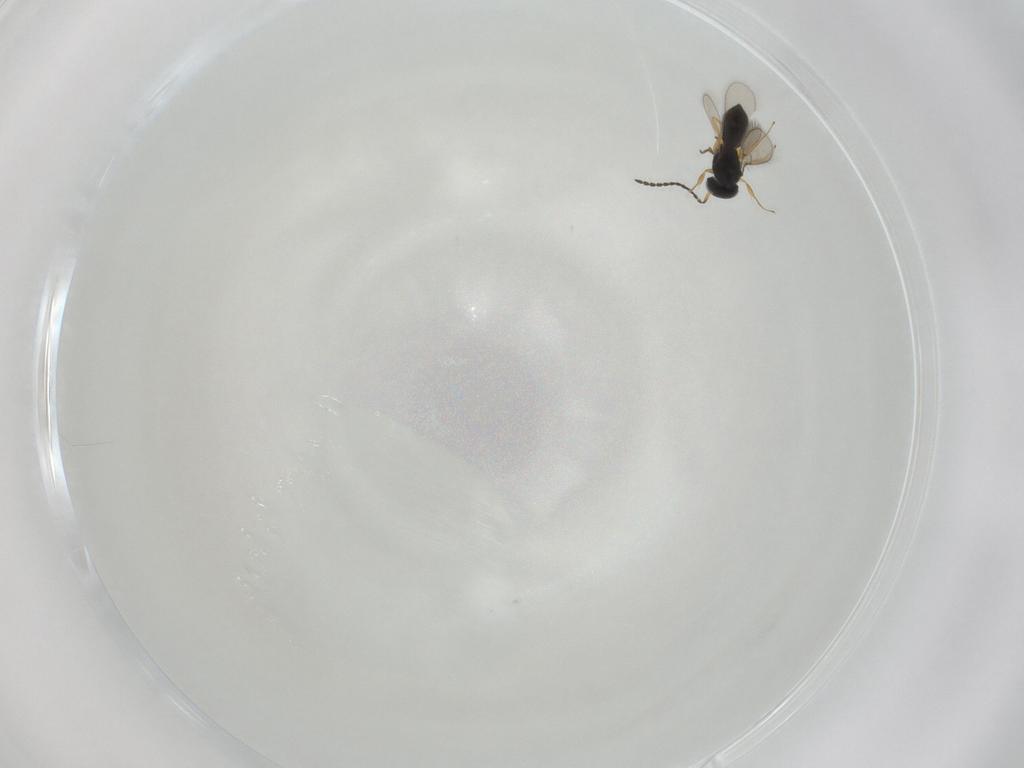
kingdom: Animalia
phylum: Arthropoda
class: Insecta
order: Hymenoptera
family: Scelionidae
